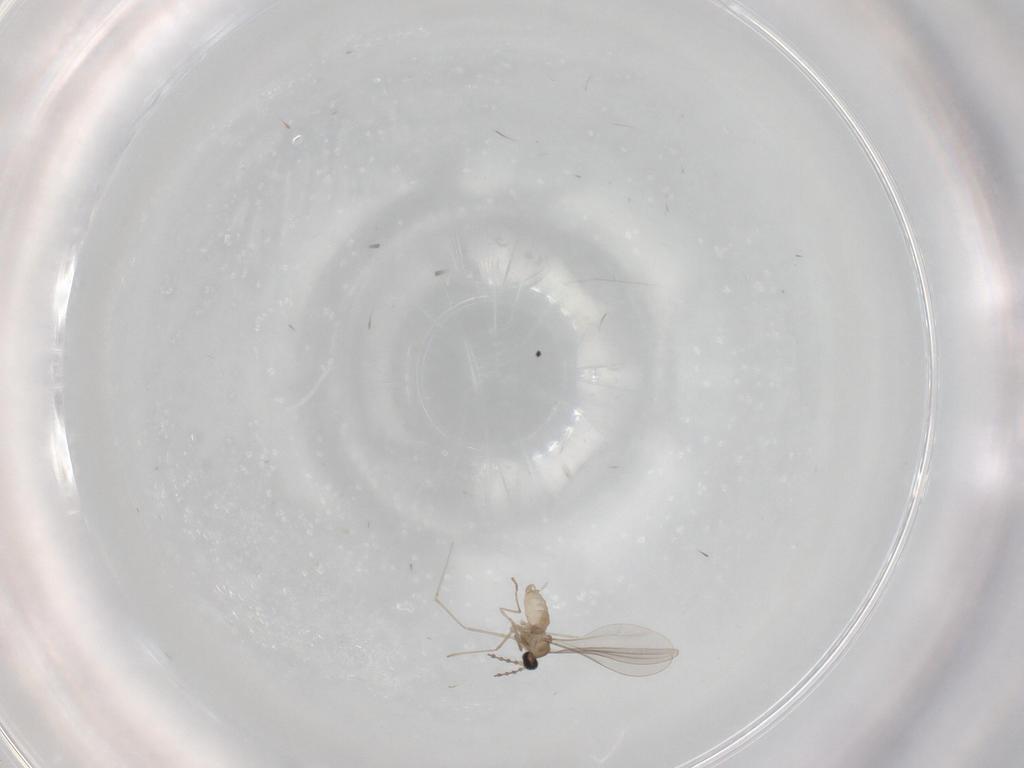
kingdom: Animalia
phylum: Arthropoda
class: Insecta
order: Diptera
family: Cecidomyiidae
